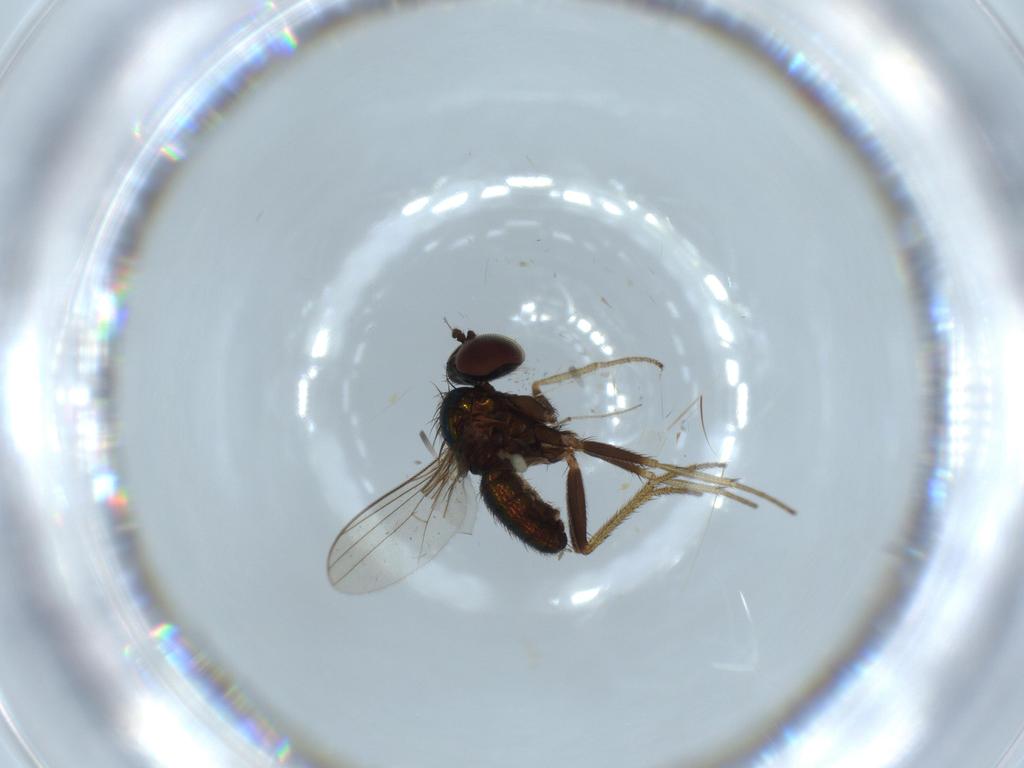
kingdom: Animalia
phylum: Arthropoda
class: Insecta
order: Diptera
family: Dolichopodidae
